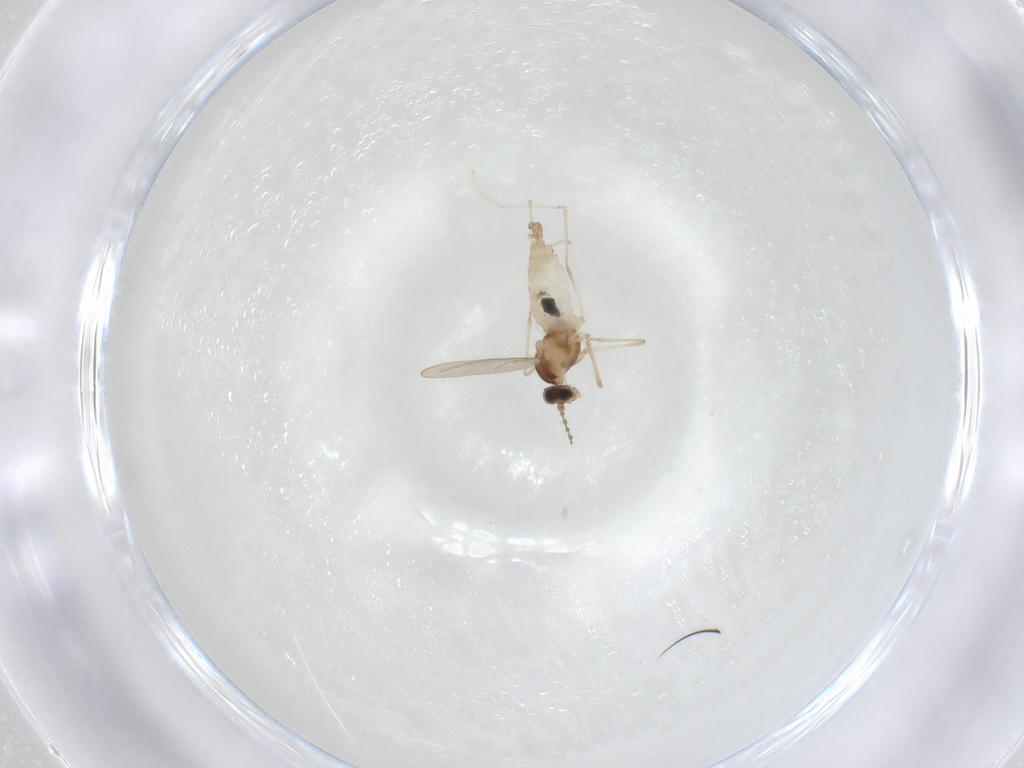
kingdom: Animalia
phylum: Arthropoda
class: Insecta
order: Diptera
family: Cecidomyiidae
